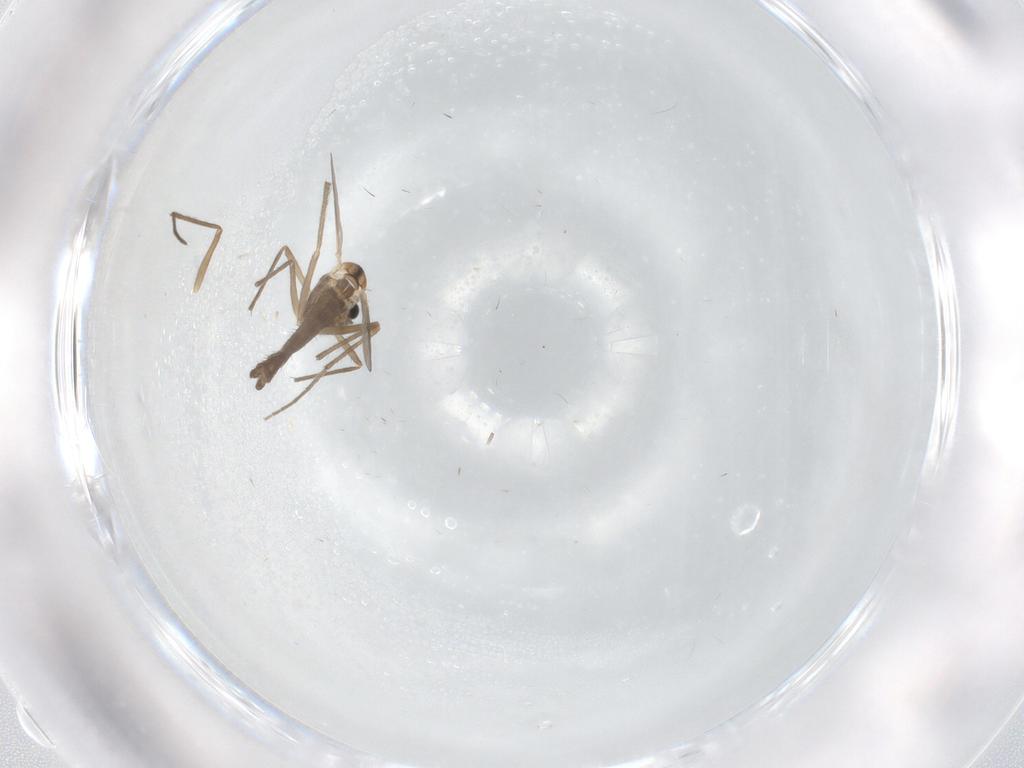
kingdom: Animalia
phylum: Arthropoda
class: Insecta
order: Diptera
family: Chironomidae
